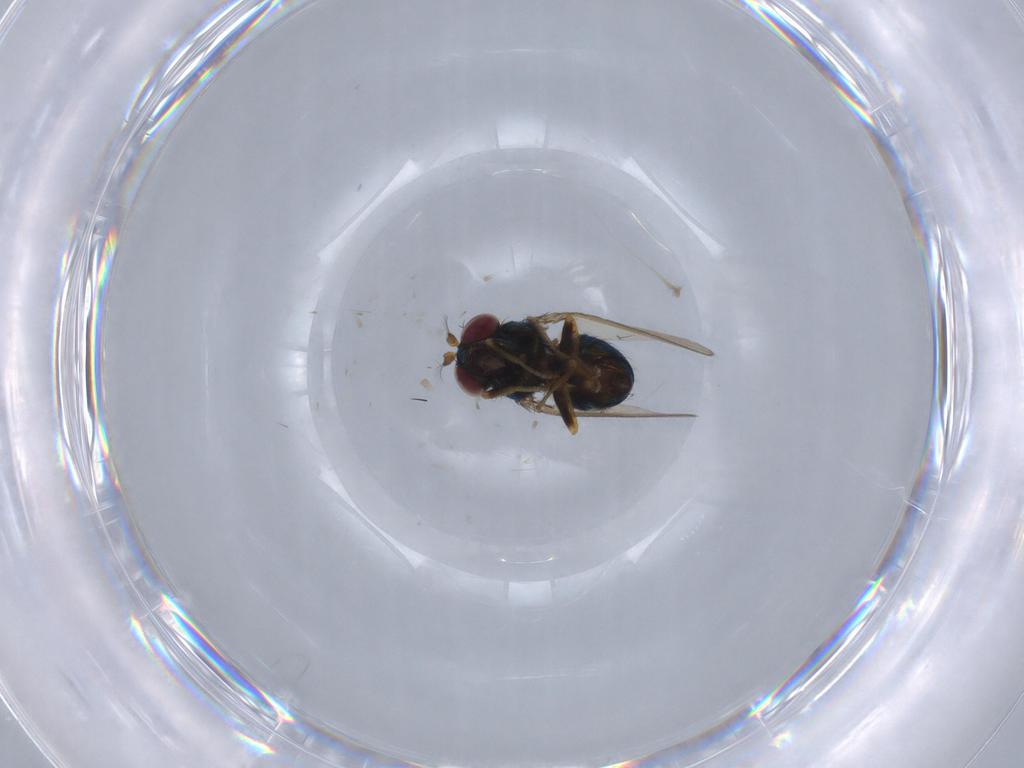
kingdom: Animalia
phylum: Arthropoda
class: Insecta
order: Diptera
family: Ephydridae
